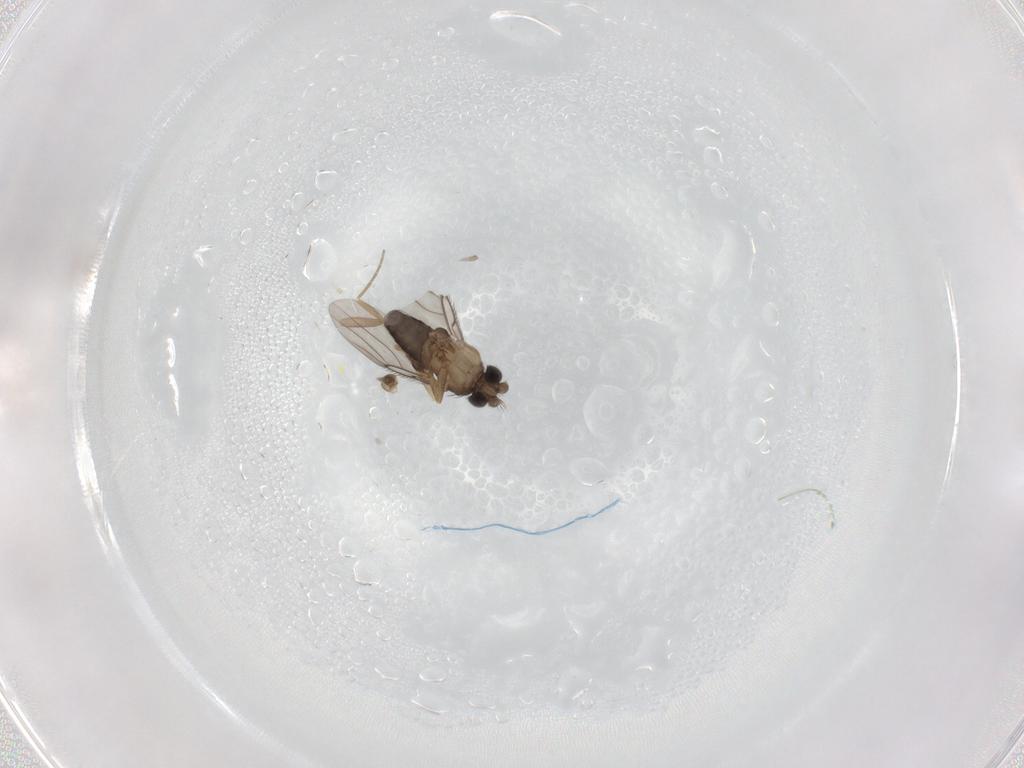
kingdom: Animalia
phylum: Arthropoda
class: Insecta
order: Diptera
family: Phoridae
